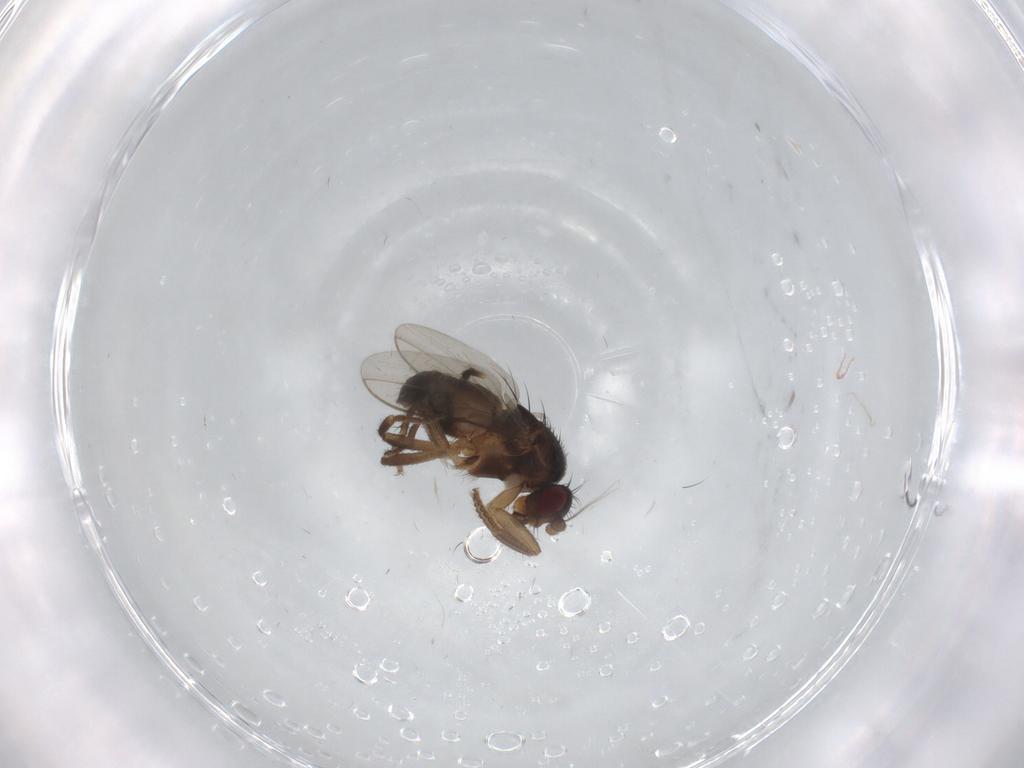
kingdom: Animalia
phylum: Arthropoda
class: Insecta
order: Diptera
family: Sphaeroceridae
